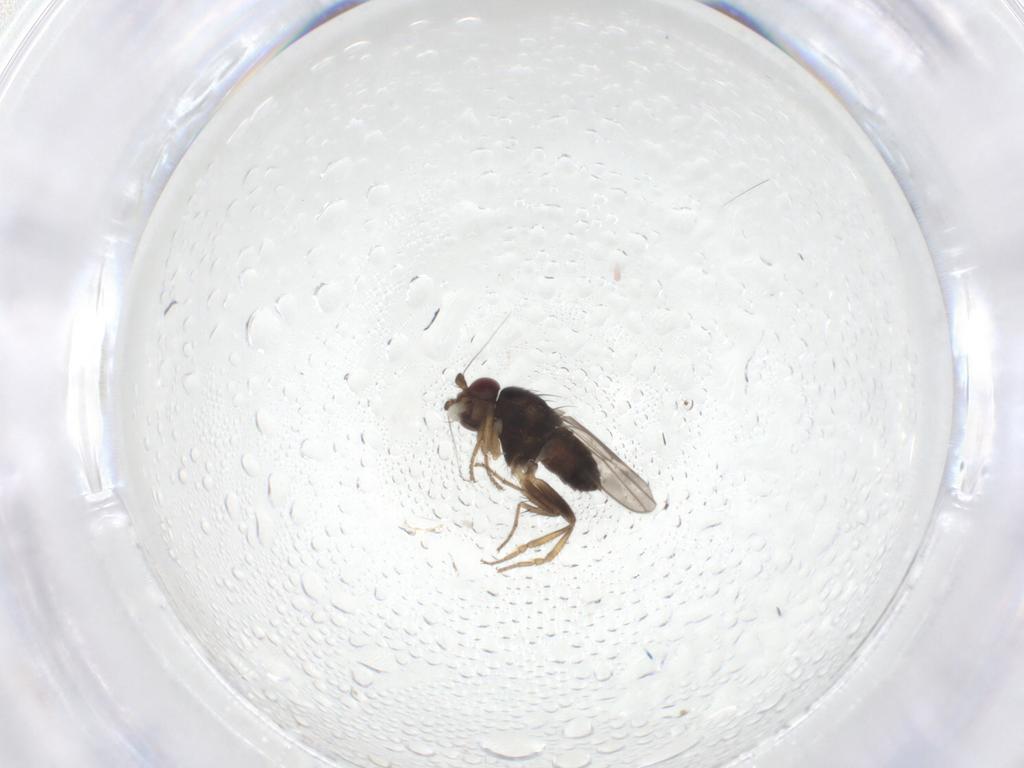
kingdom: Animalia
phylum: Arthropoda
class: Insecta
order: Diptera
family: Sphaeroceridae
